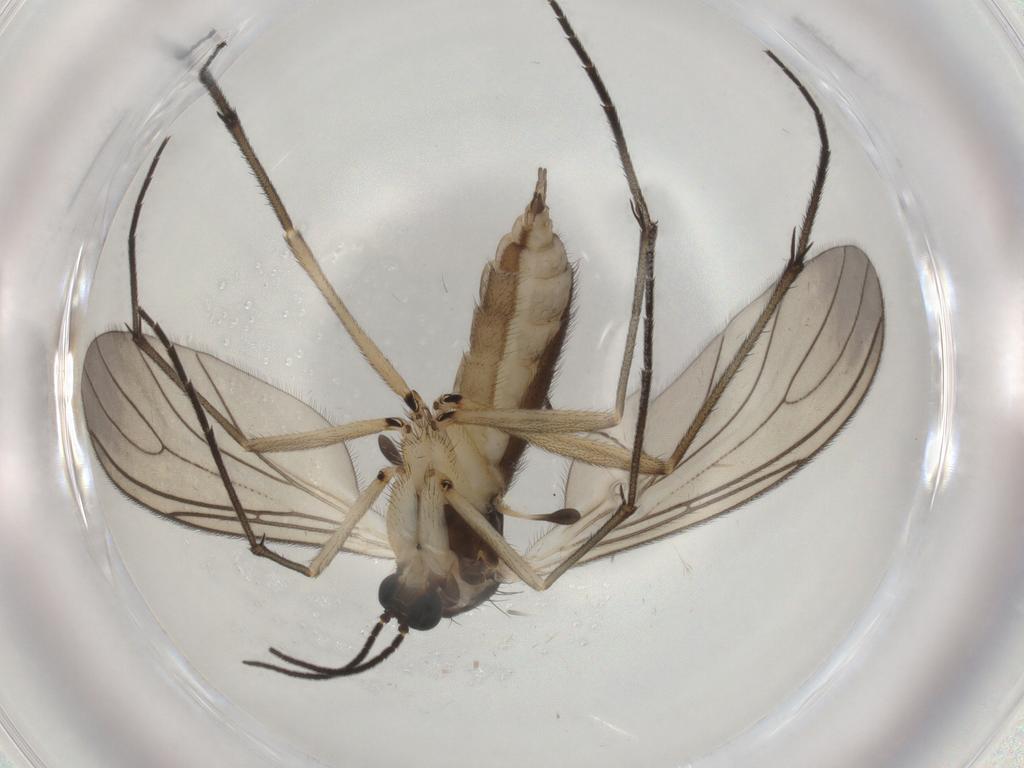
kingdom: Animalia
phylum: Arthropoda
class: Insecta
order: Diptera
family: Sciaridae
